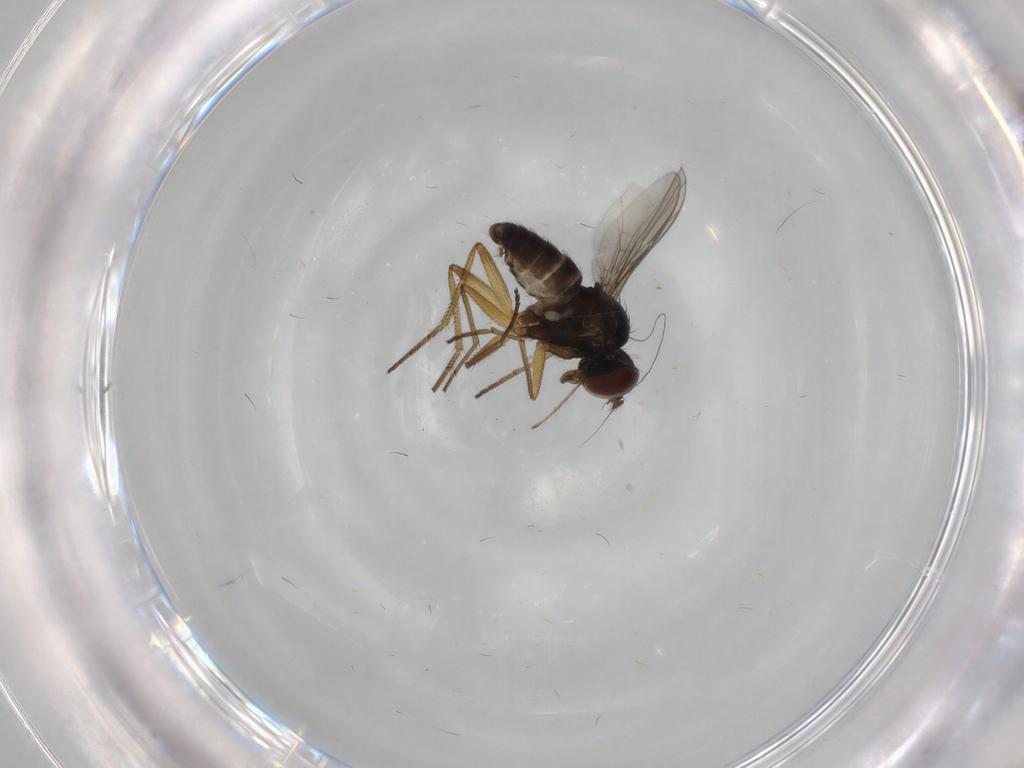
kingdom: Animalia
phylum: Arthropoda
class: Insecta
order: Diptera
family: Dolichopodidae
